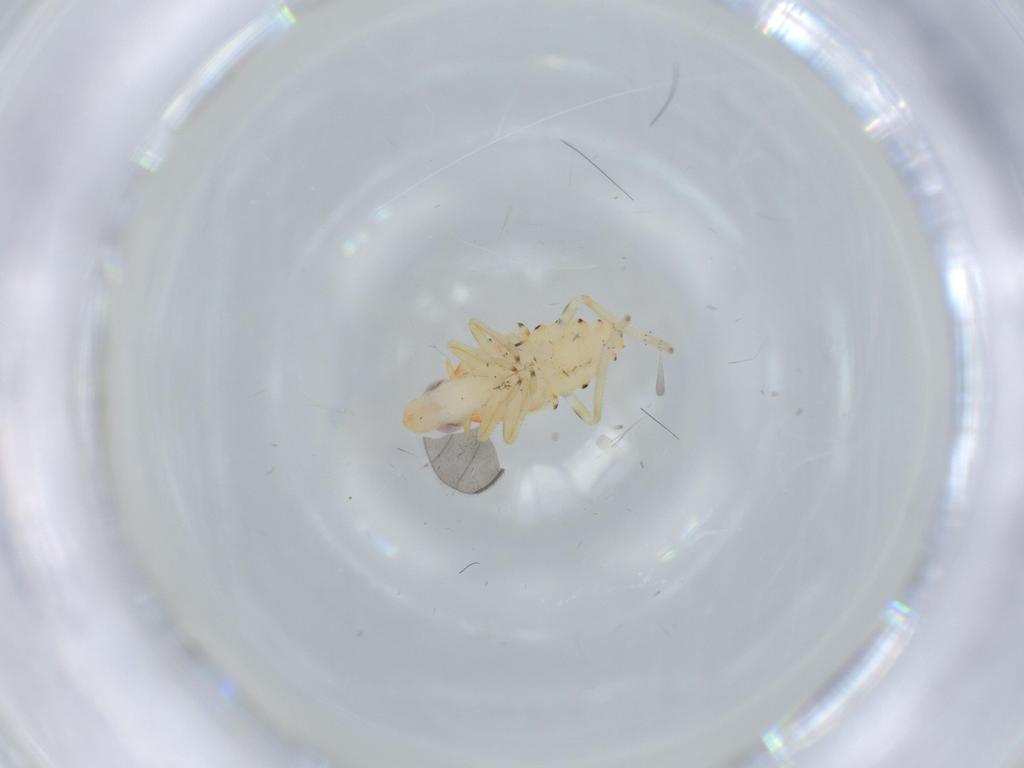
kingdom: Animalia
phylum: Arthropoda
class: Insecta
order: Hemiptera
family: Tropiduchidae
